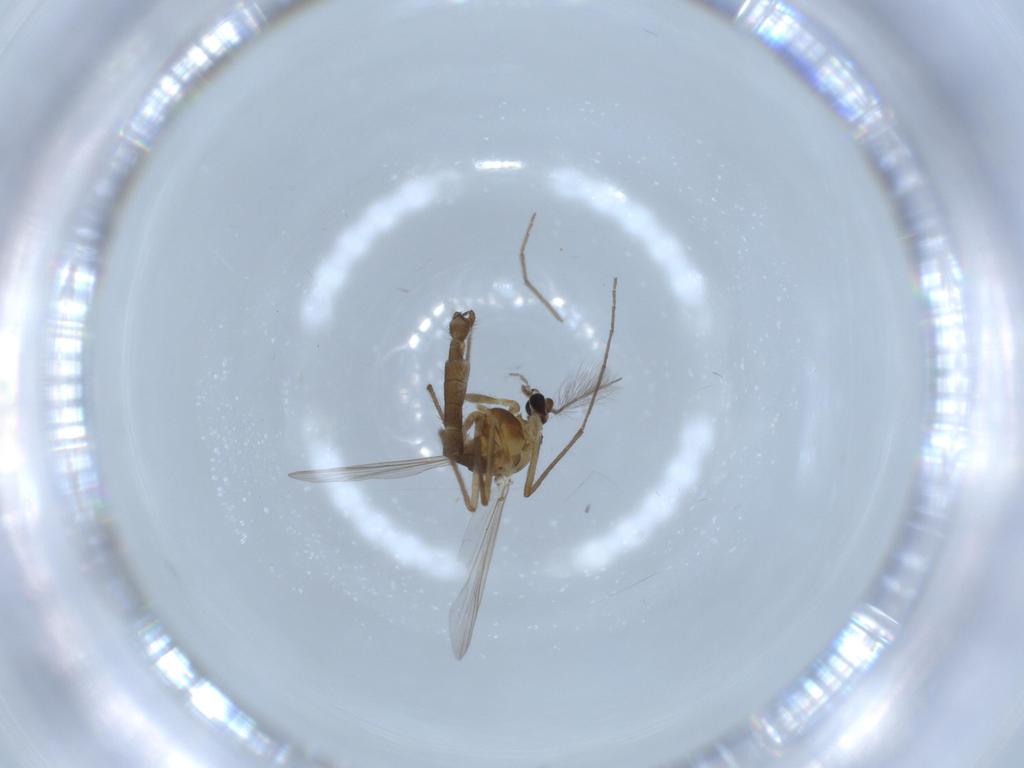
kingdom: Animalia
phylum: Arthropoda
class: Insecta
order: Diptera
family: Chironomidae
